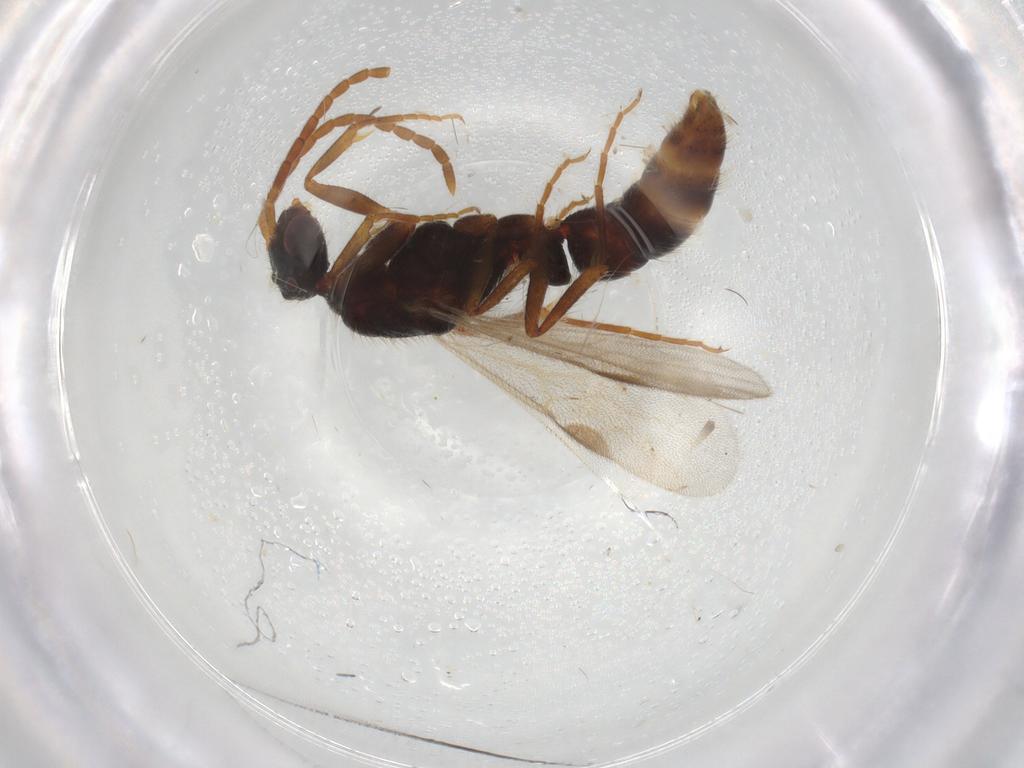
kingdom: Animalia
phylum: Arthropoda
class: Insecta
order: Hymenoptera
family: Formicidae
